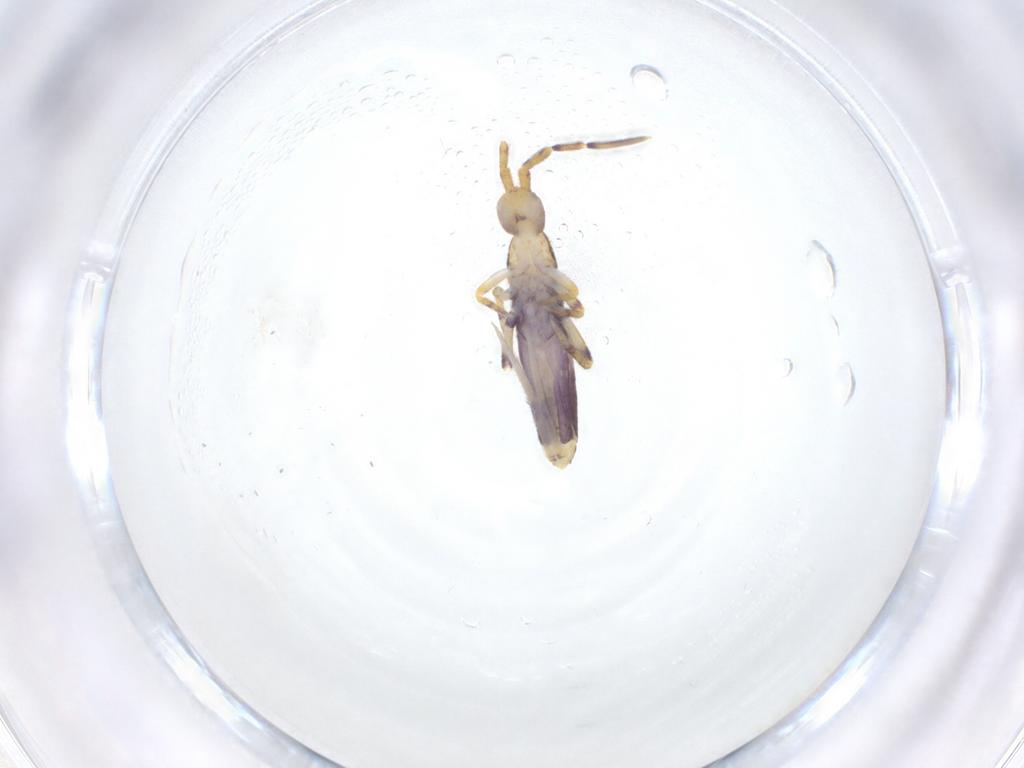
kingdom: Animalia
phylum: Arthropoda
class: Collembola
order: Entomobryomorpha
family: Entomobryidae
